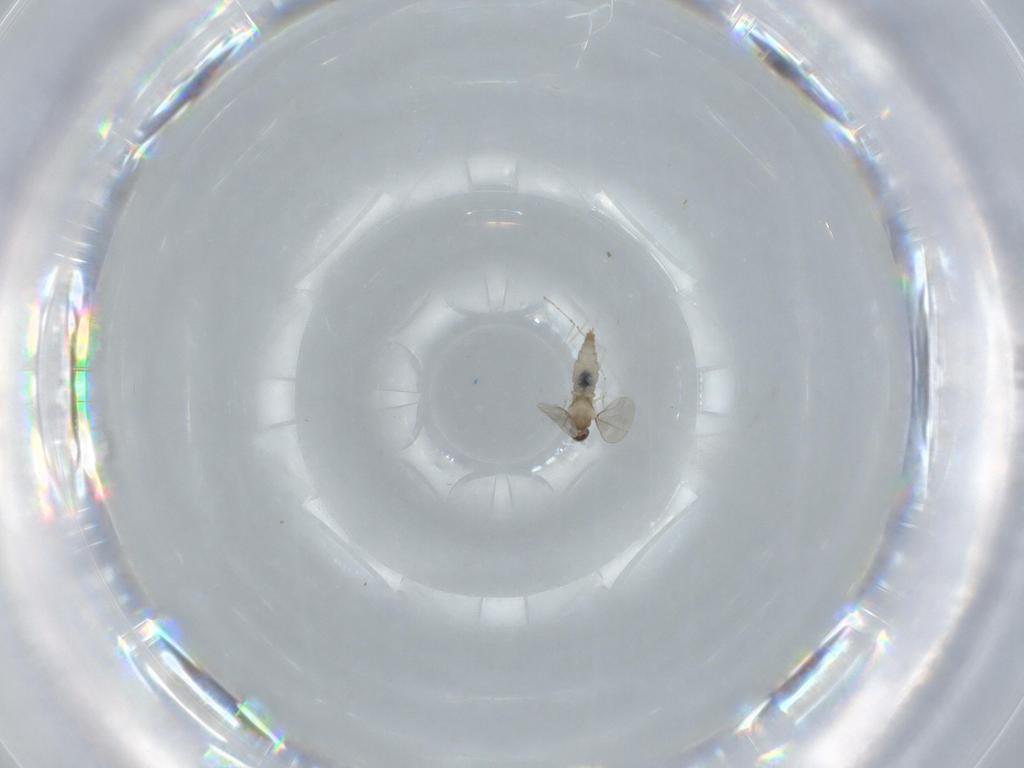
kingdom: Animalia
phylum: Arthropoda
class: Insecta
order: Diptera
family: Cecidomyiidae
